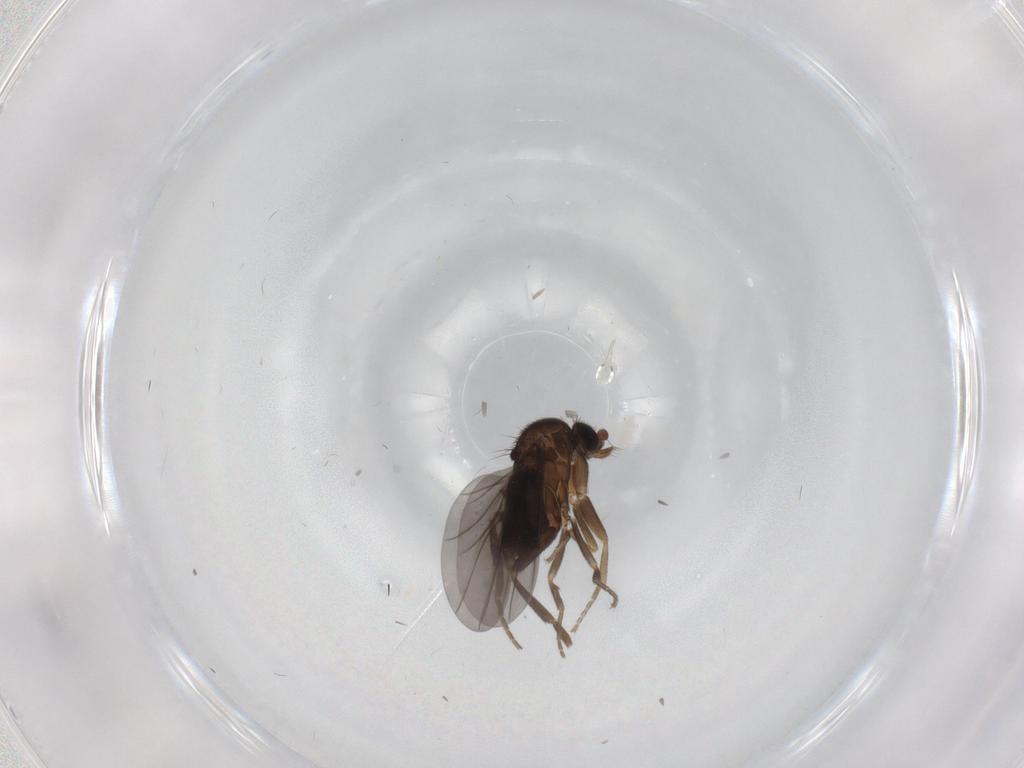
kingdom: Animalia
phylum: Arthropoda
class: Insecta
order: Diptera
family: Phoridae
